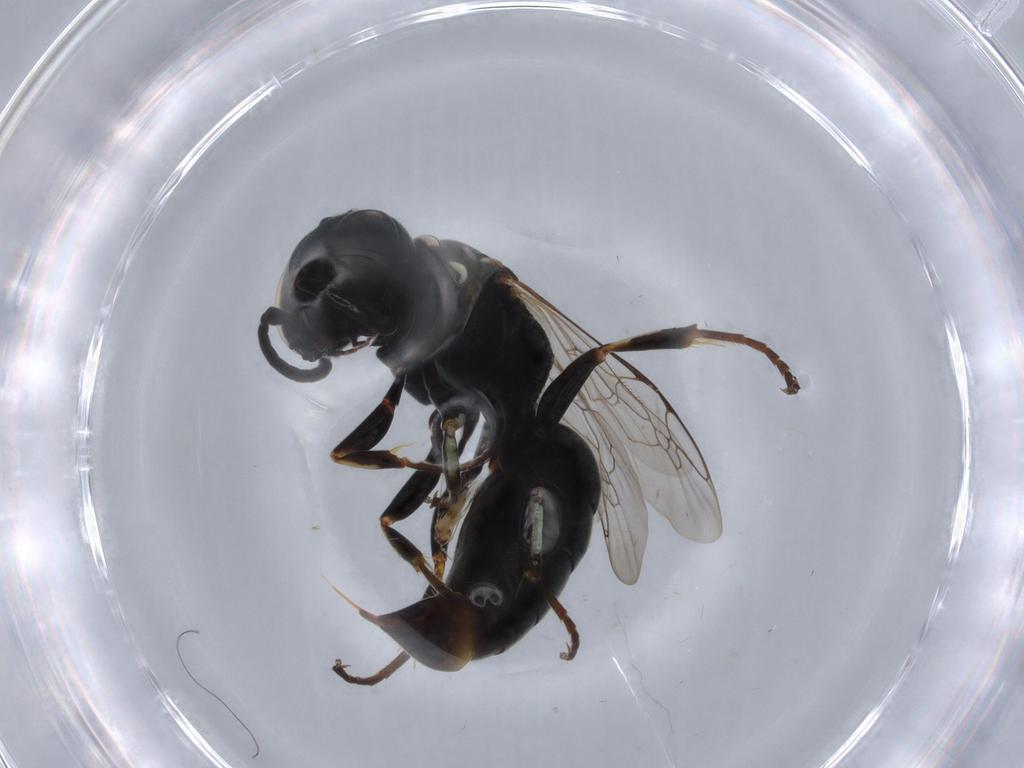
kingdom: Animalia
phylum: Arthropoda
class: Insecta
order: Hymenoptera
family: Crabronidae
